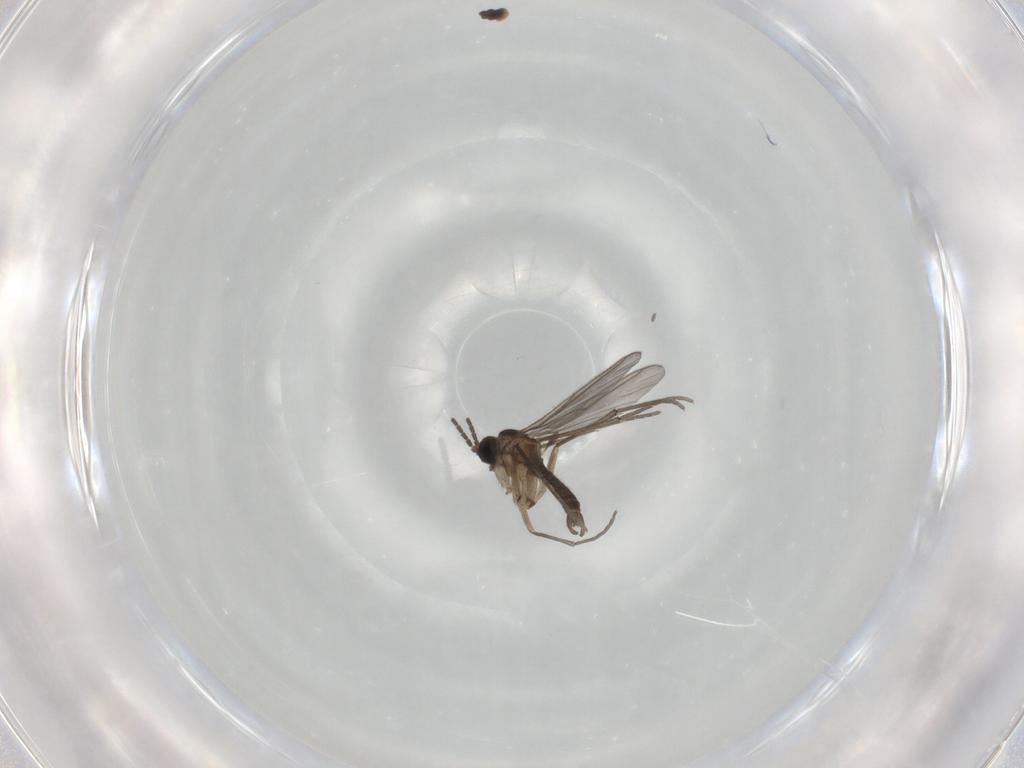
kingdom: Animalia
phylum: Arthropoda
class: Insecta
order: Diptera
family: Sciaridae
